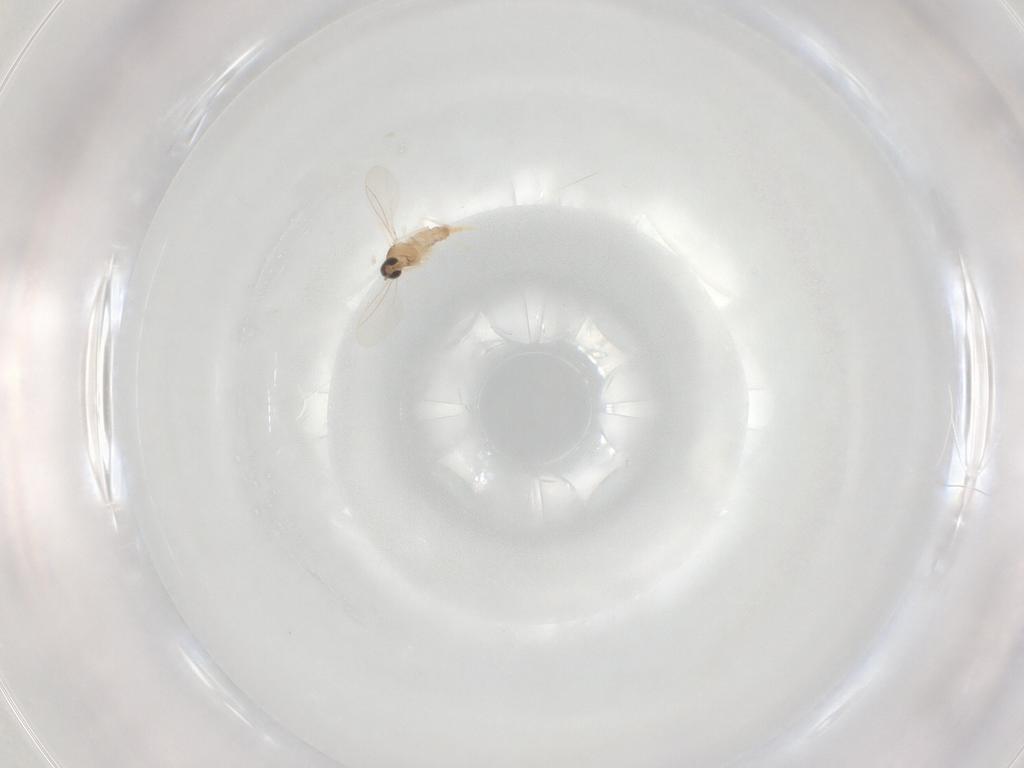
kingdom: Animalia
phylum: Arthropoda
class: Insecta
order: Diptera
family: Cecidomyiidae
